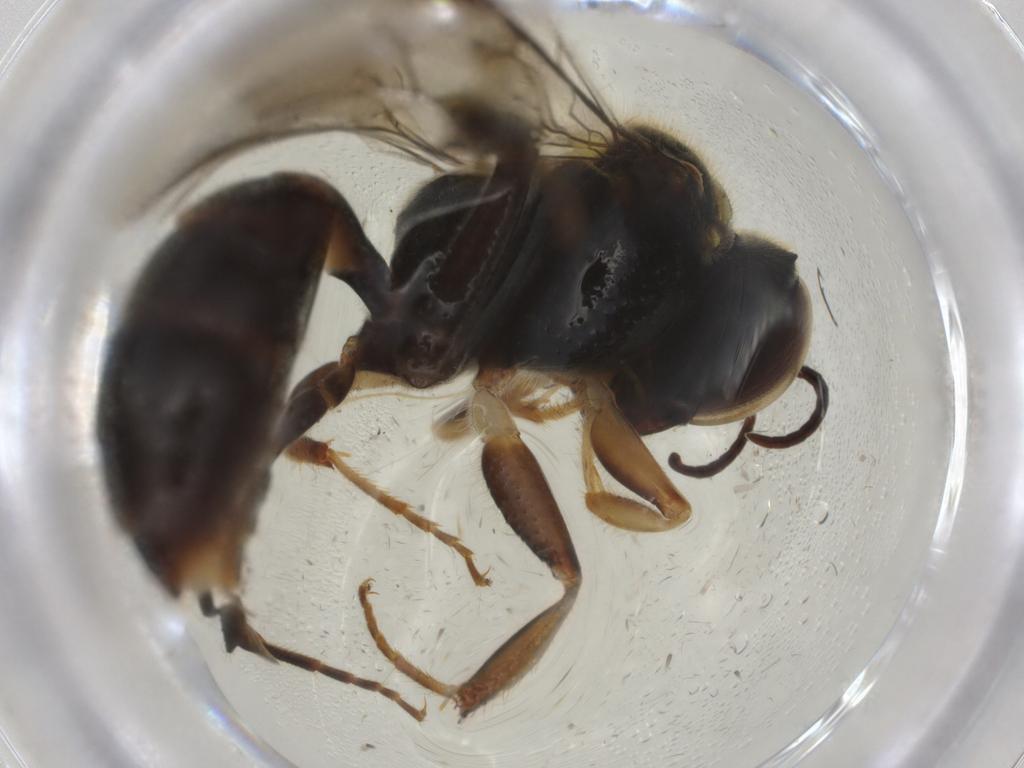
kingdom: Animalia
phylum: Arthropoda
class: Insecta
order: Hymenoptera
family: Crabronidae
